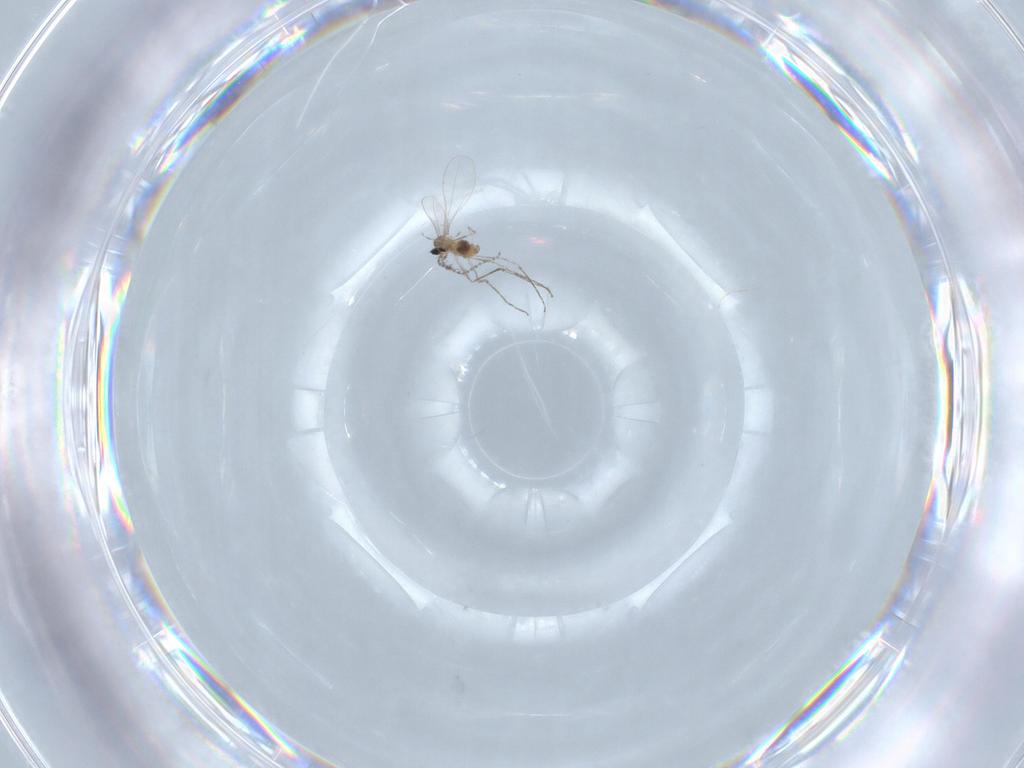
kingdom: Animalia
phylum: Arthropoda
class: Insecta
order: Diptera
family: Cecidomyiidae
